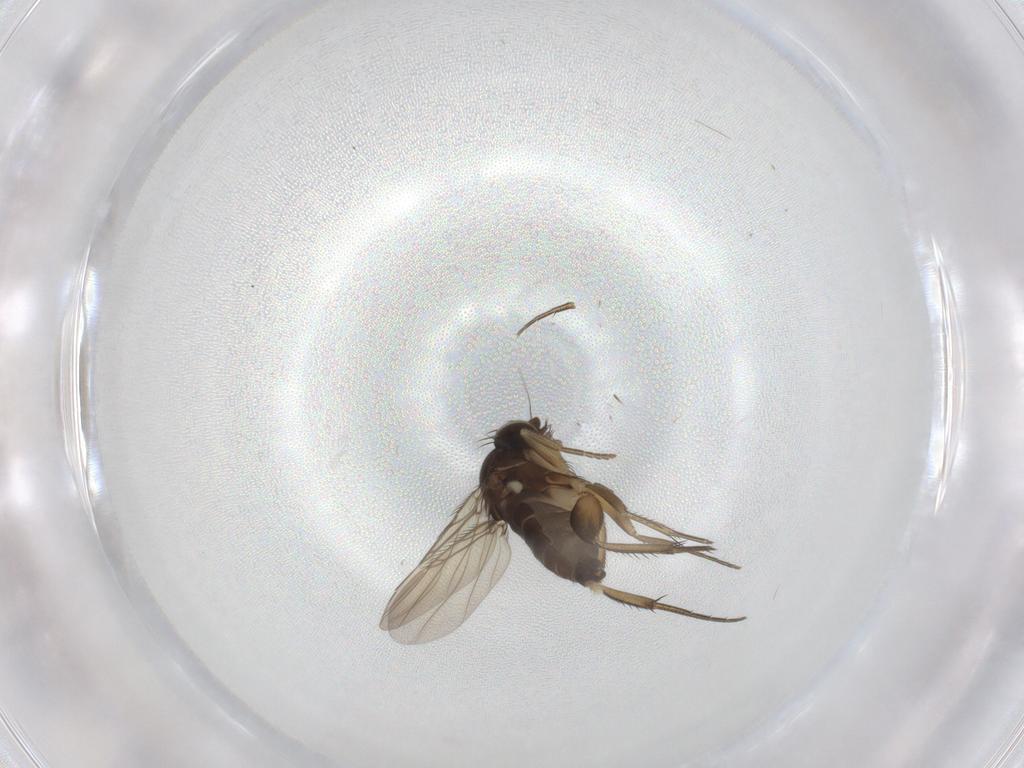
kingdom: Animalia
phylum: Arthropoda
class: Insecta
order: Diptera
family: Phoridae
